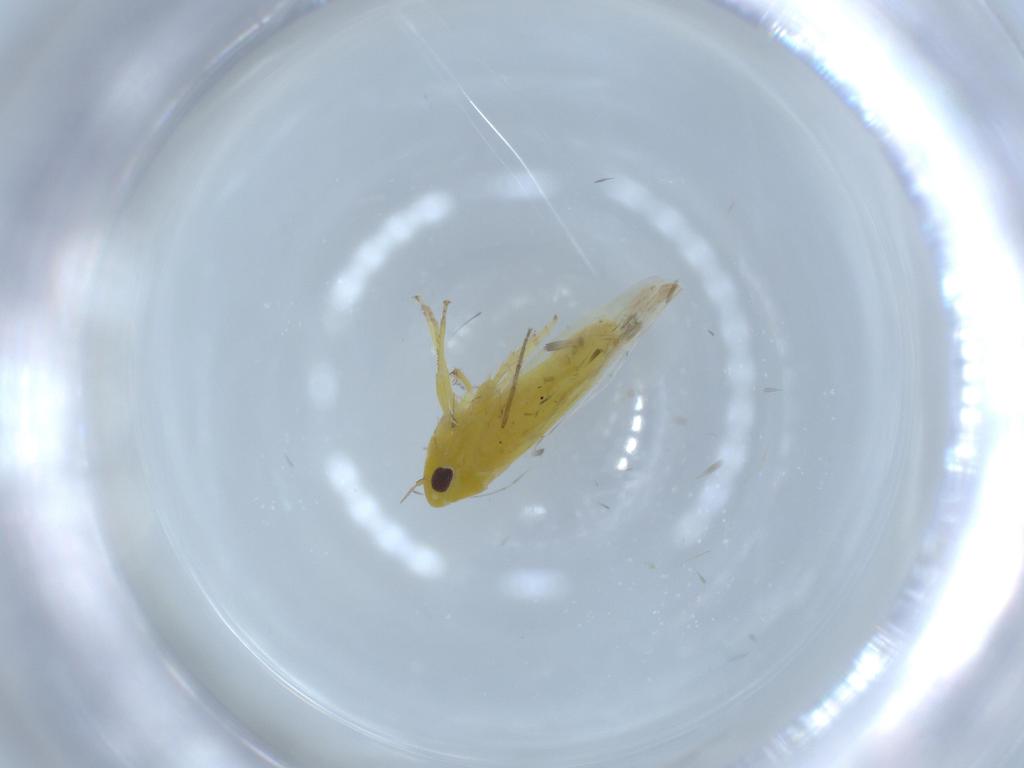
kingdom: Animalia
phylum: Arthropoda
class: Insecta
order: Hemiptera
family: Cicadellidae
